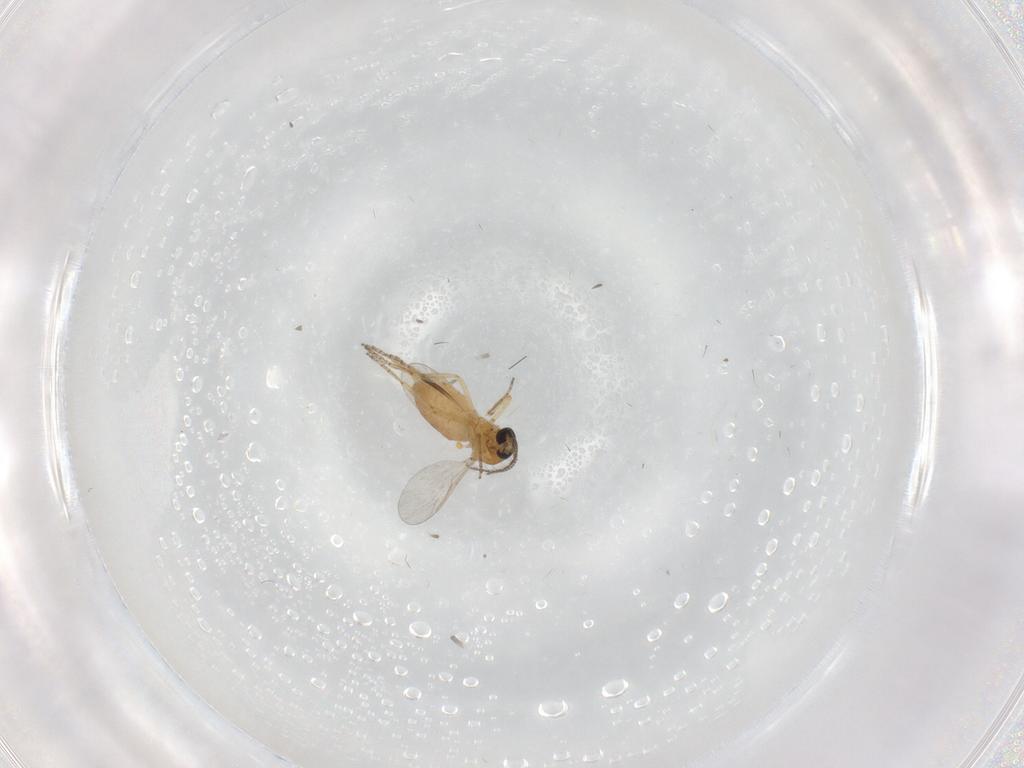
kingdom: Animalia
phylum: Arthropoda
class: Insecta
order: Diptera
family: Ceratopogonidae
